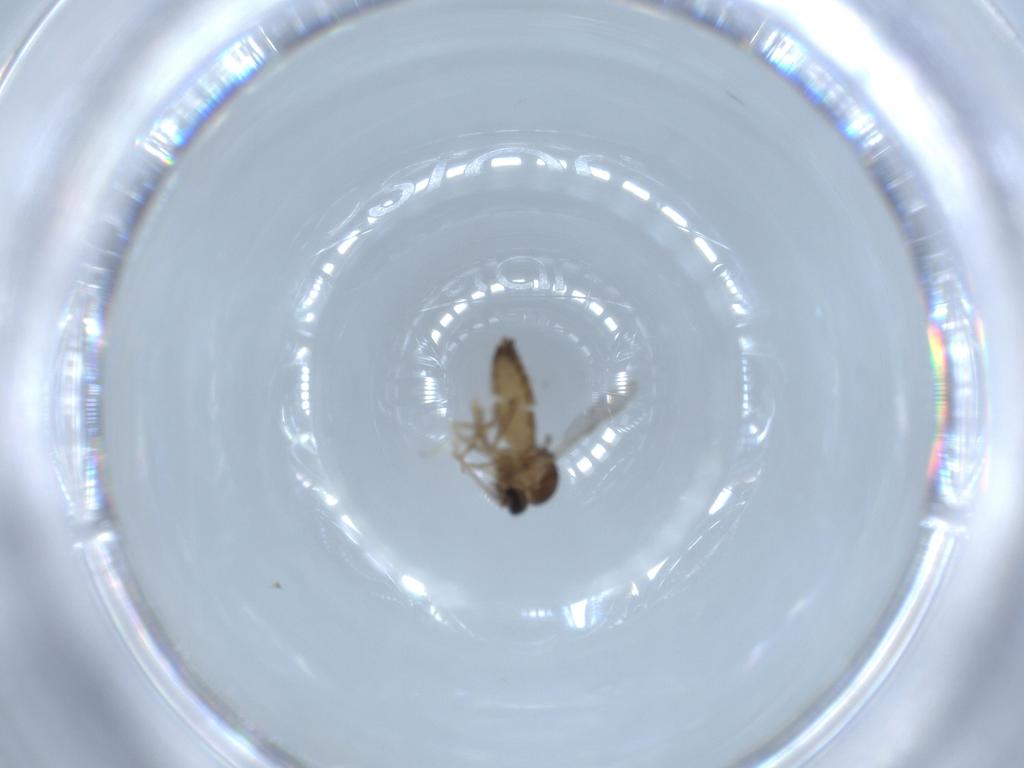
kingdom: Animalia
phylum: Arthropoda
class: Insecta
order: Diptera
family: Ceratopogonidae
